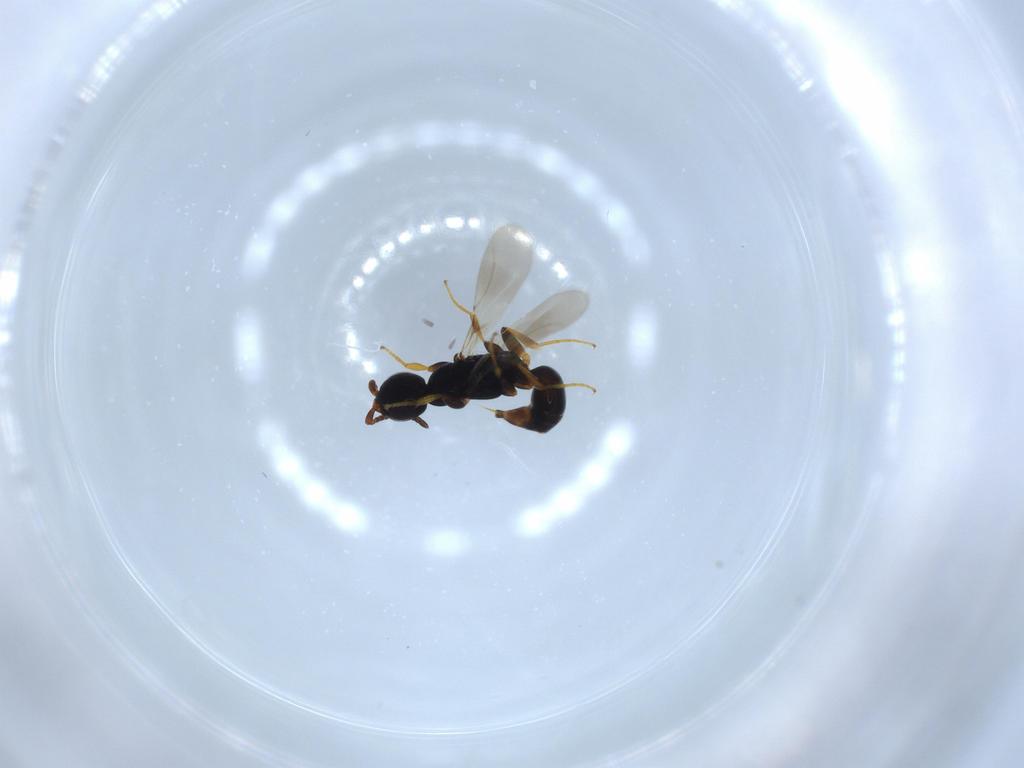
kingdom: Animalia
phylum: Arthropoda
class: Insecta
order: Hymenoptera
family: Bethylidae
